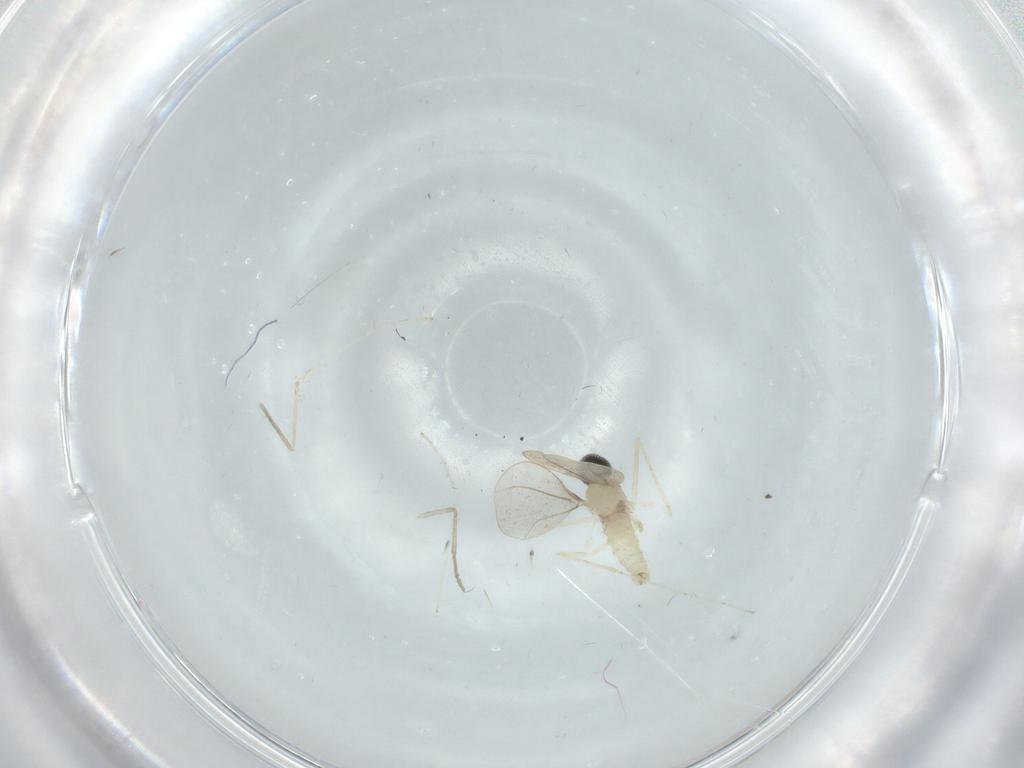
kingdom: Animalia
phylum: Arthropoda
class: Insecta
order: Diptera
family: Cecidomyiidae
